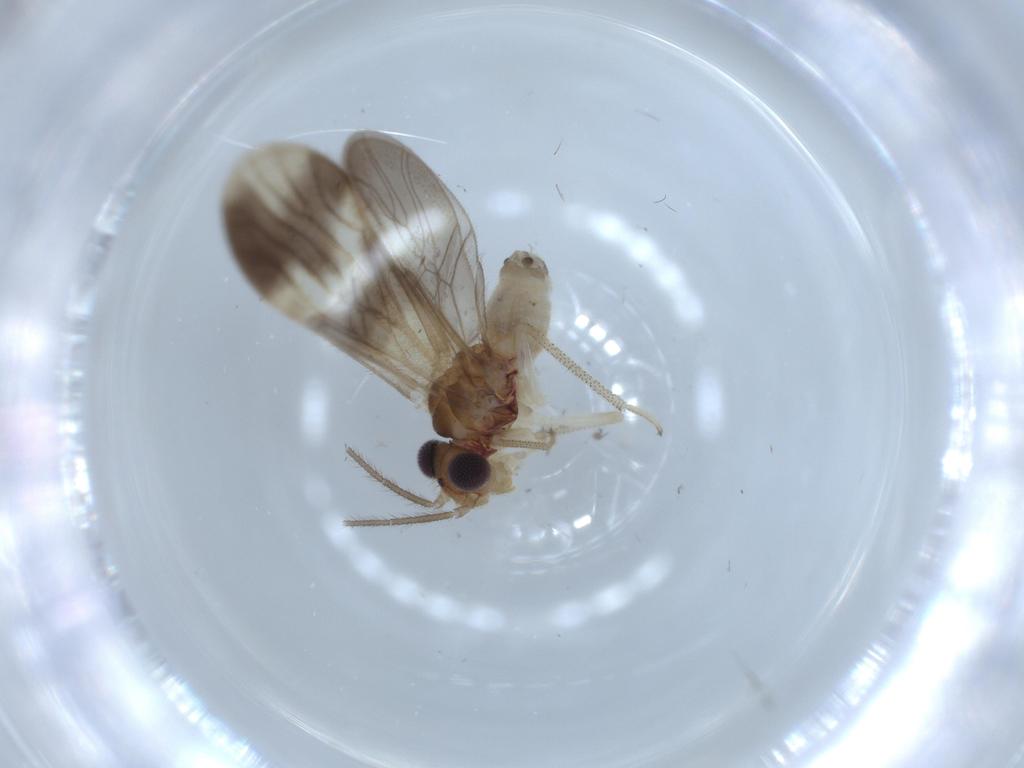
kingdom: Animalia
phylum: Arthropoda
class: Insecta
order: Psocodea
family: Amphipsocidae
